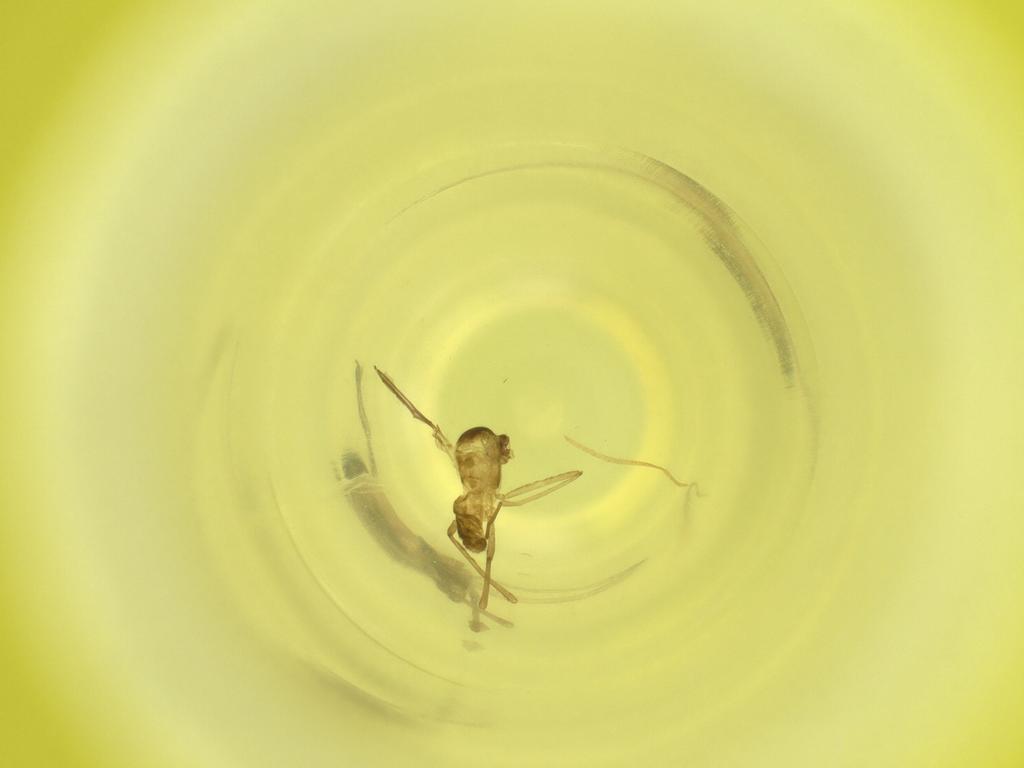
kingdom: Animalia
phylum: Arthropoda
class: Insecta
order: Diptera
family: Cecidomyiidae
